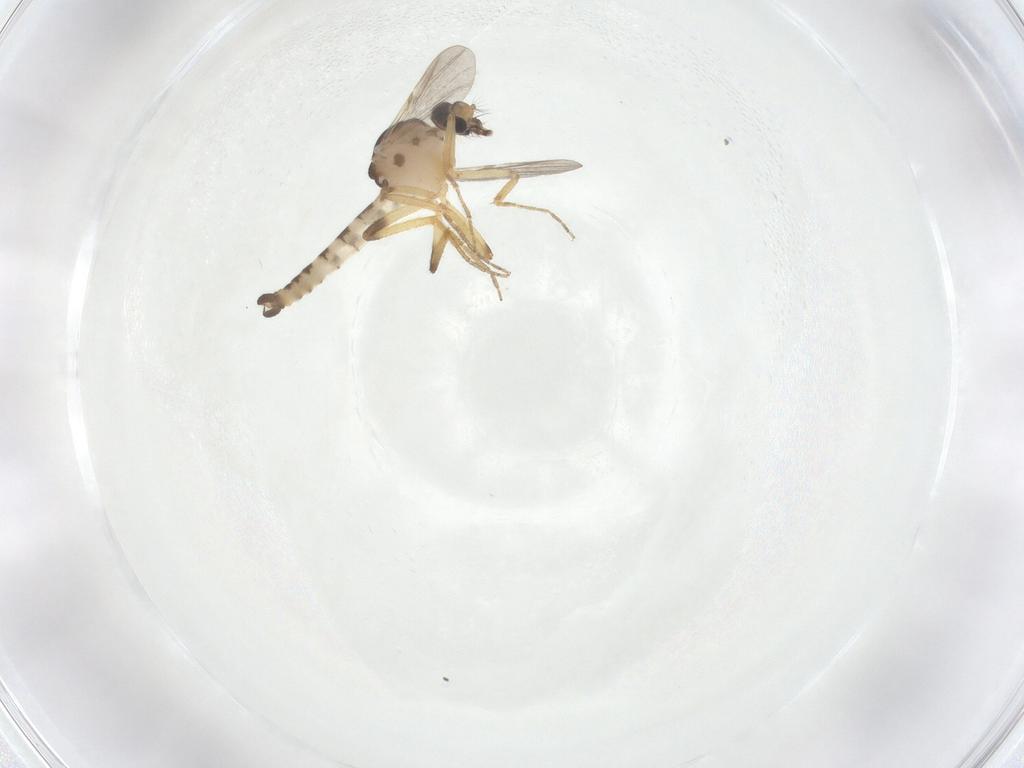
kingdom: Animalia
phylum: Arthropoda
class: Insecta
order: Diptera
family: Ceratopogonidae
